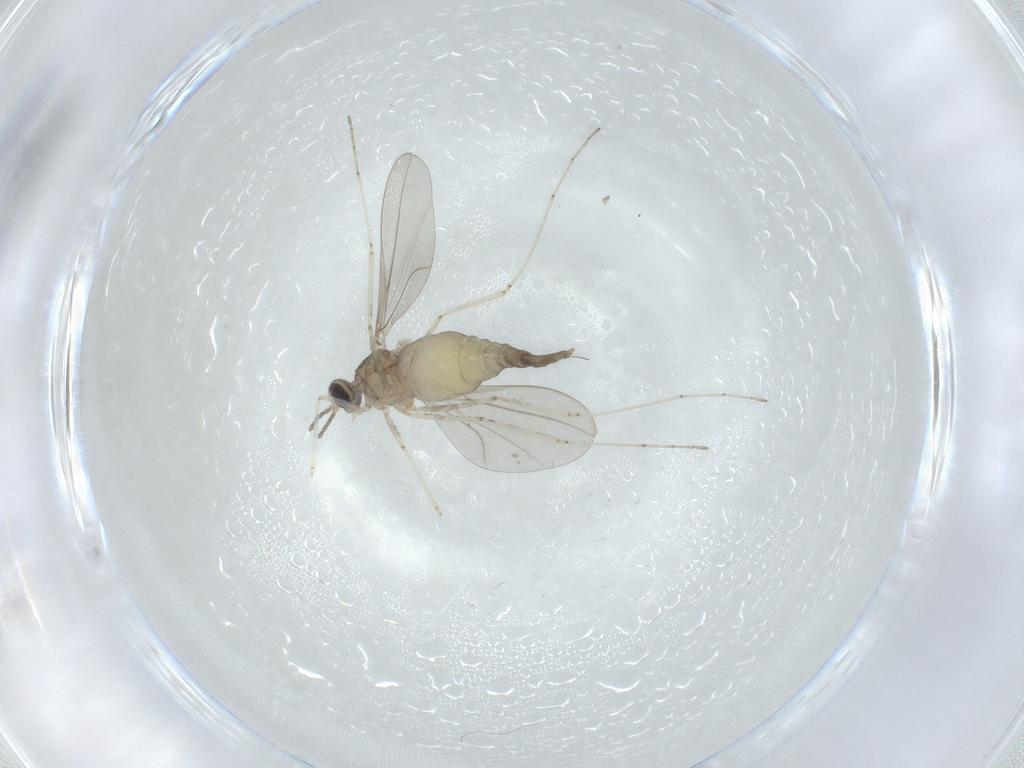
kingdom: Animalia
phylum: Arthropoda
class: Insecta
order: Diptera
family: Cecidomyiidae
